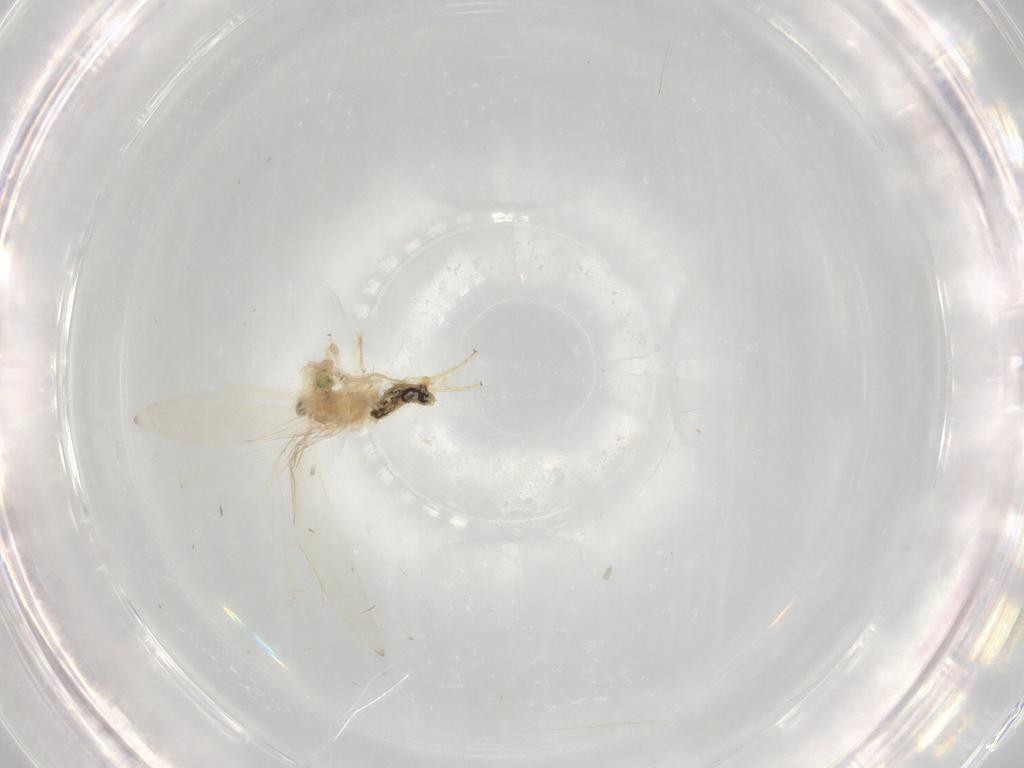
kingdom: Animalia
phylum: Arthropoda
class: Insecta
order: Psocodea
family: Lepidopsocidae
